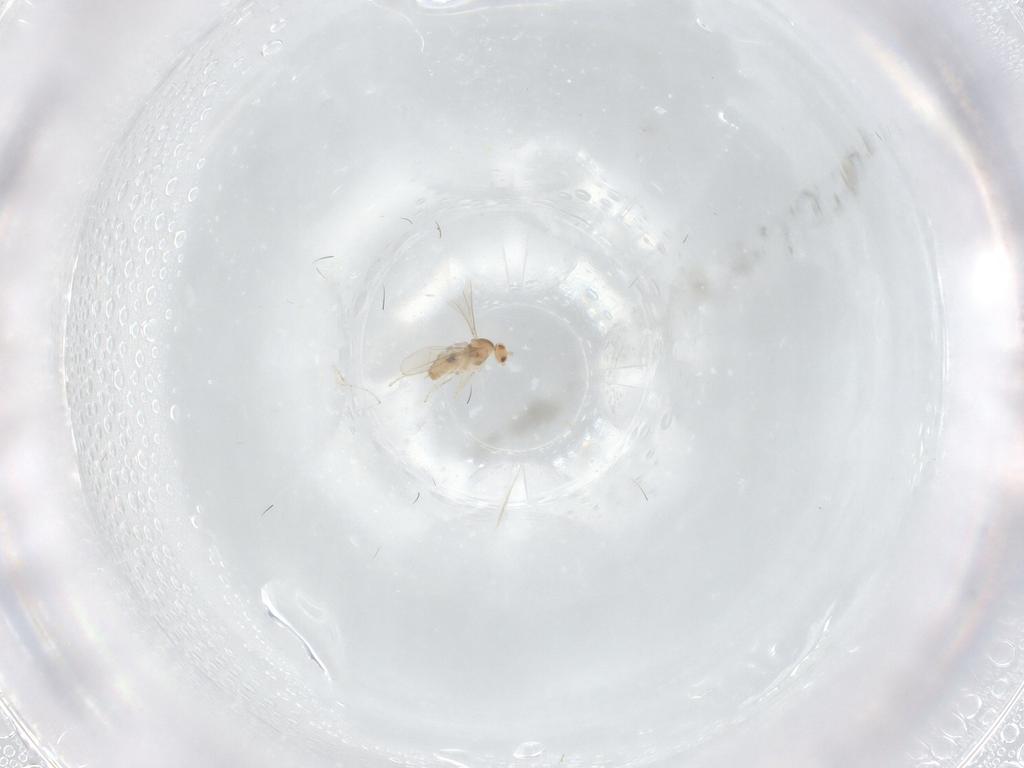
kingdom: Animalia
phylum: Arthropoda
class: Insecta
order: Diptera
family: Cecidomyiidae
